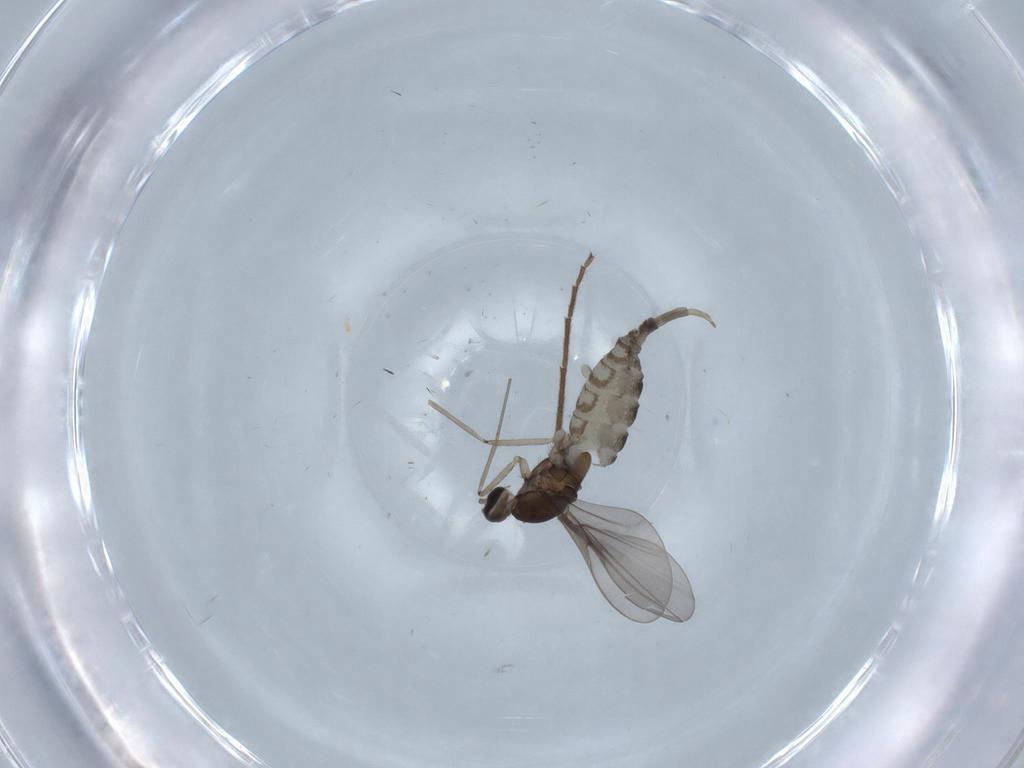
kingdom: Animalia
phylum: Arthropoda
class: Insecta
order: Diptera
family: Cecidomyiidae
